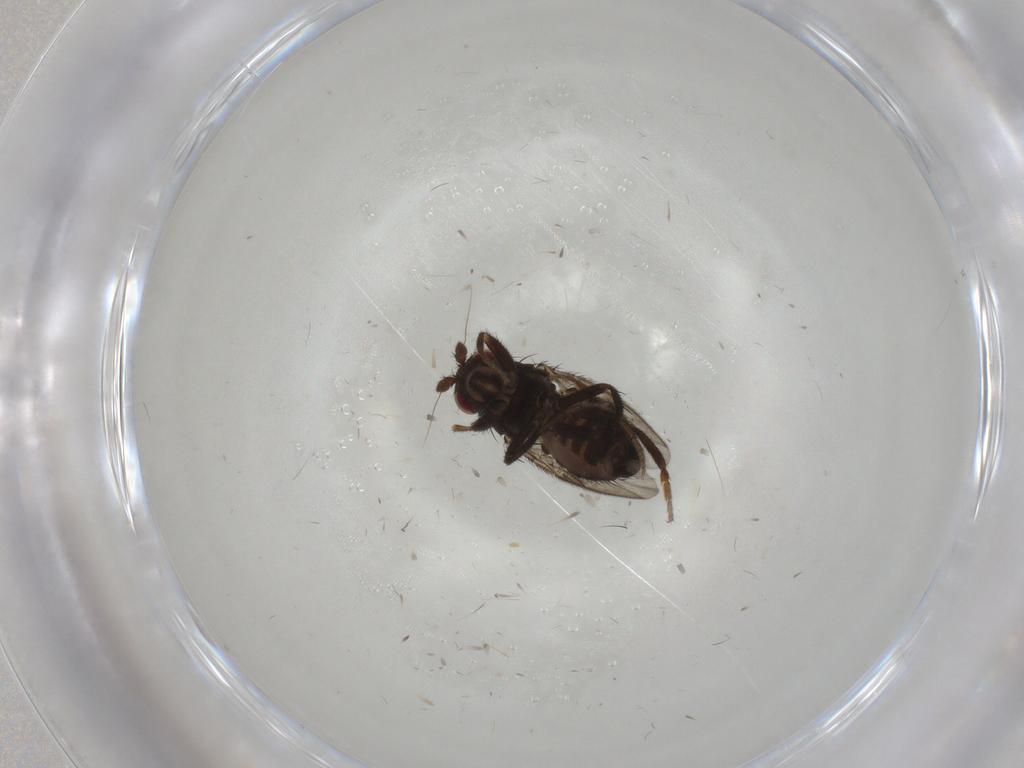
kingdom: Animalia
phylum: Arthropoda
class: Insecta
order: Diptera
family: Sphaeroceridae
